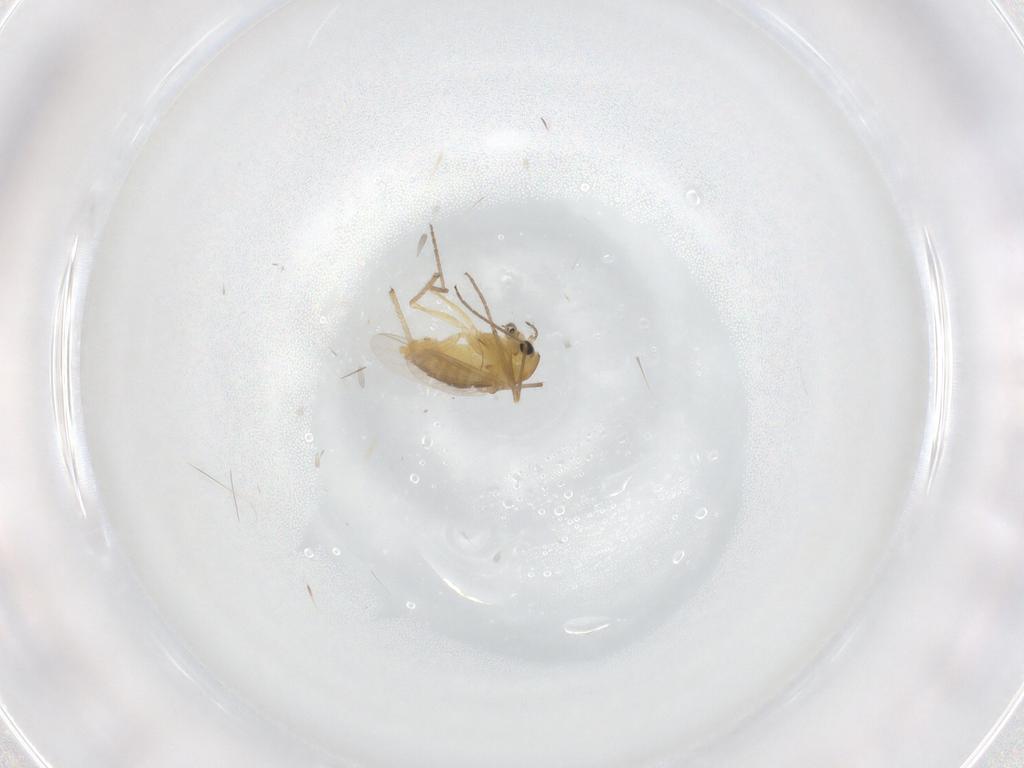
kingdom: Animalia
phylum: Arthropoda
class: Insecta
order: Diptera
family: Chironomidae
